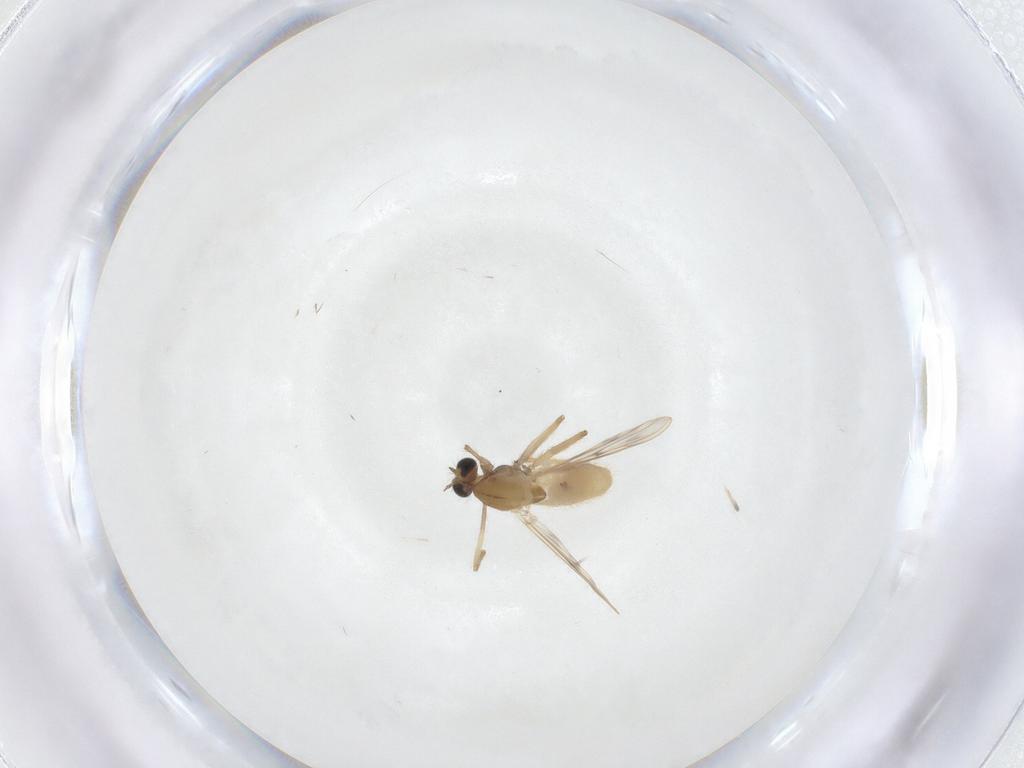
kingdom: Animalia
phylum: Arthropoda
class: Insecta
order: Diptera
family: Chironomidae
